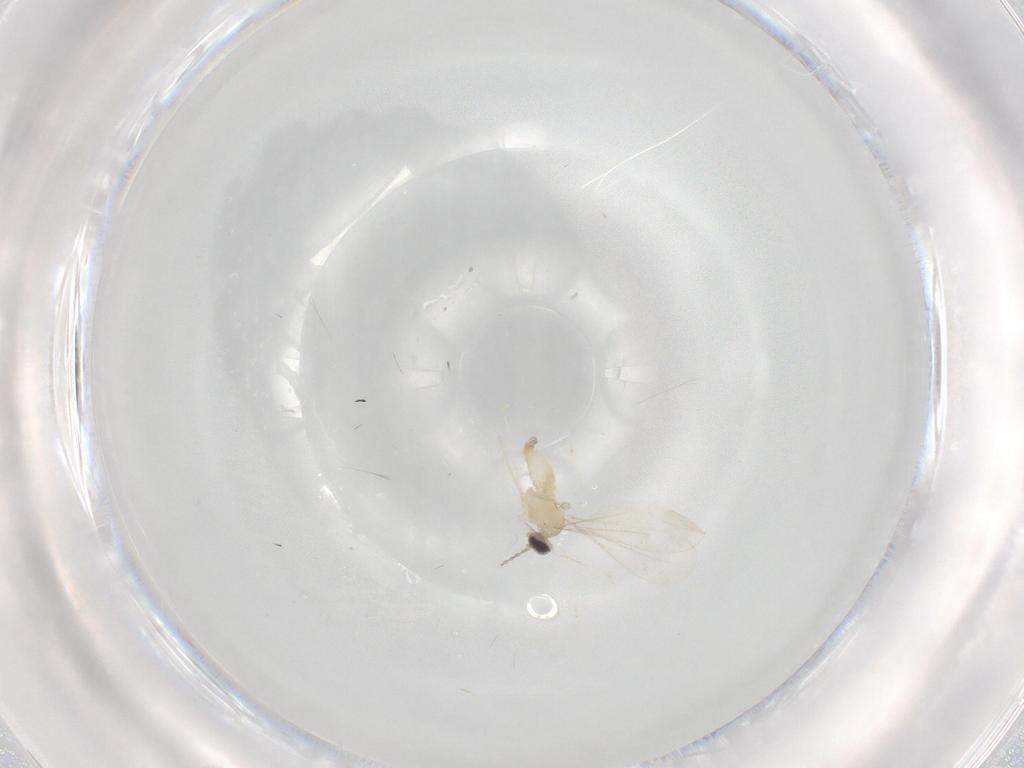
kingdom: Animalia
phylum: Arthropoda
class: Insecta
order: Diptera
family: Cecidomyiidae
